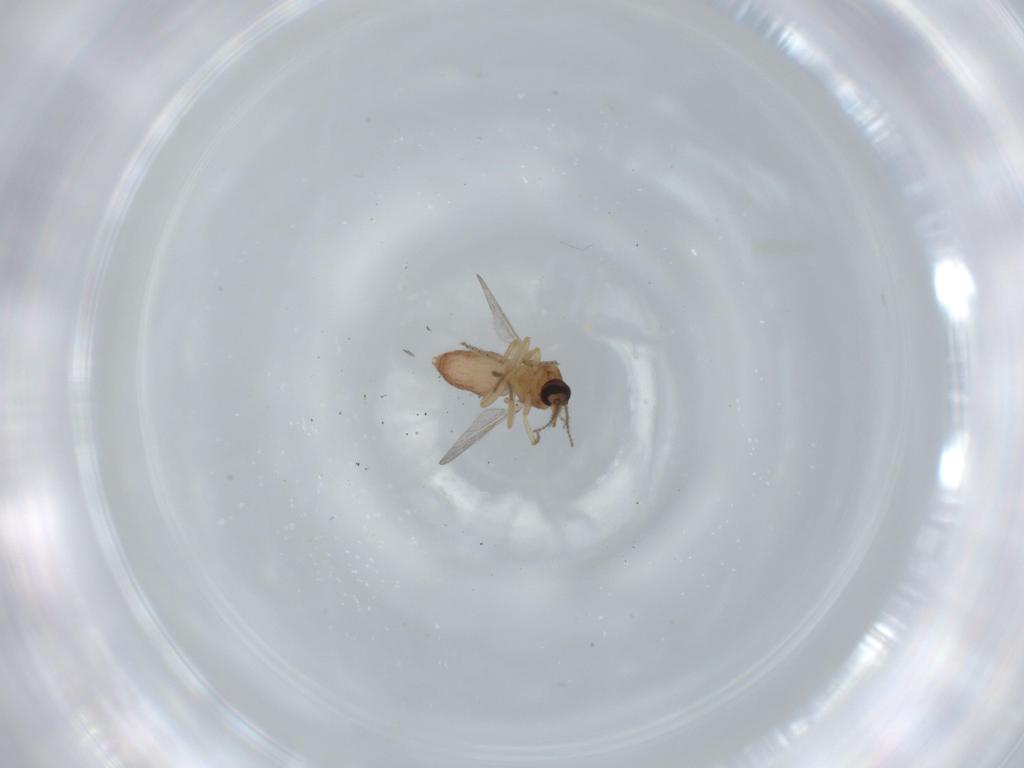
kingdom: Animalia
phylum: Arthropoda
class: Insecta
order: Diptera
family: Ceratopogonidae
